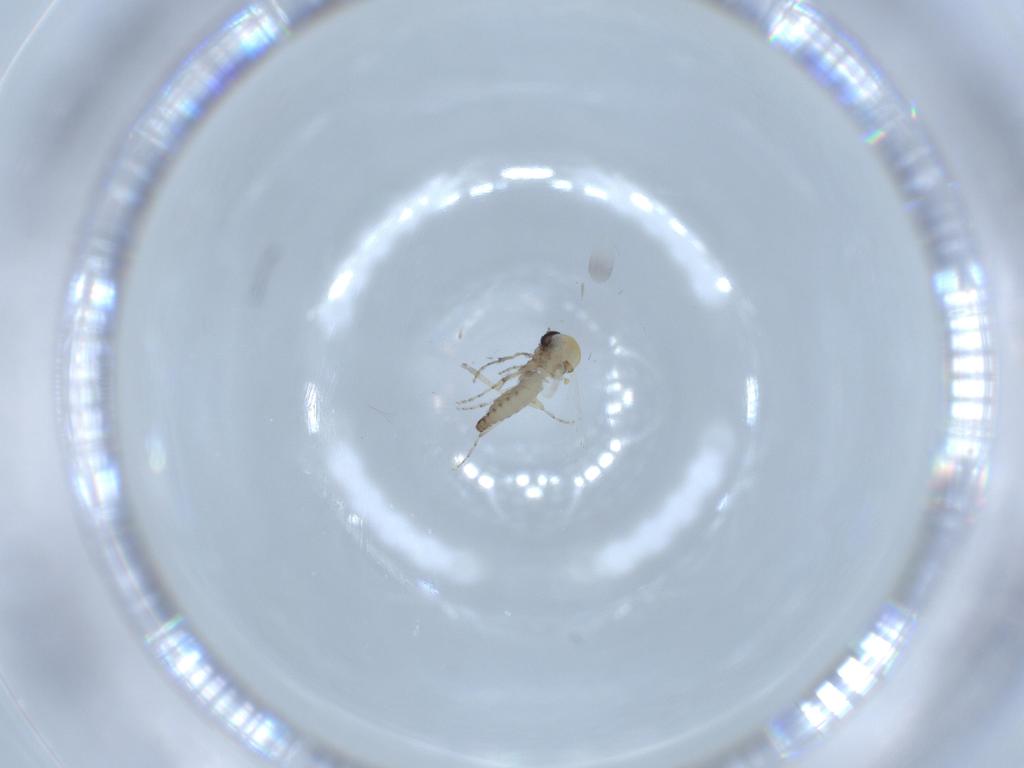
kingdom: Animalia
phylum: Arthropoda
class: Insecta
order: Diptera
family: Ceratopogonidae
